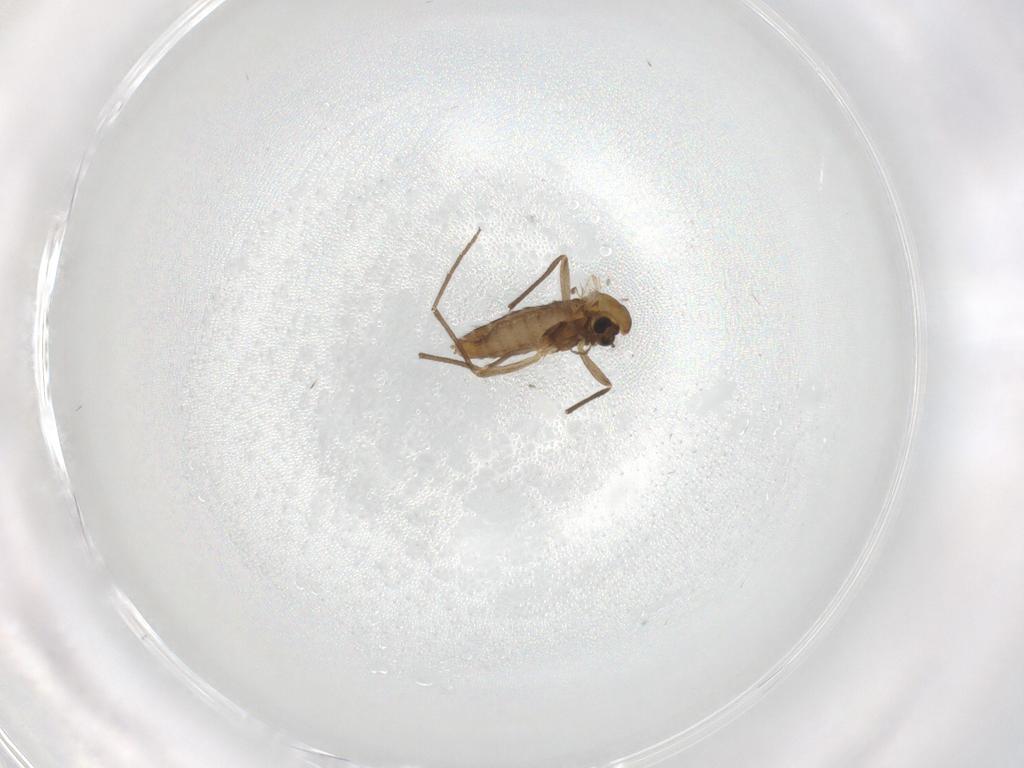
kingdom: Animalia
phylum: Arthropoda
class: Insecta
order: Diptera
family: Chironomidae
